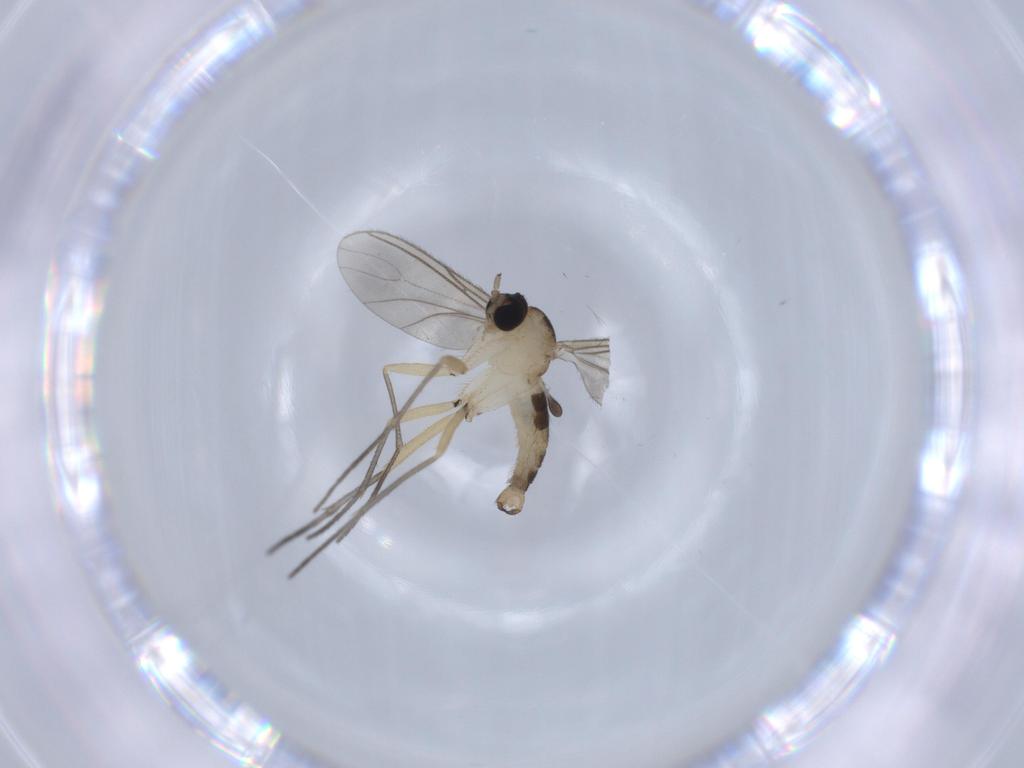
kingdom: Animalia
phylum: Arthropoda
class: Insecta
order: Diptera
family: Sciaridae
